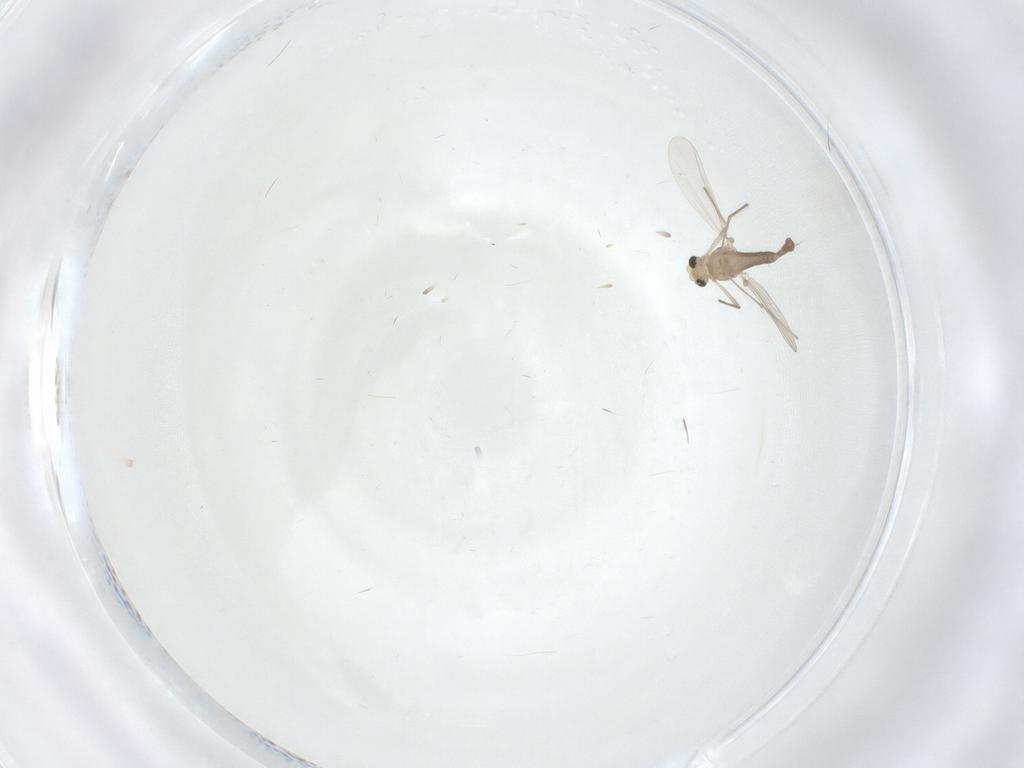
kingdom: Animalia
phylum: Arthropoda
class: Insecta
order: Diptera
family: Chironomidae
